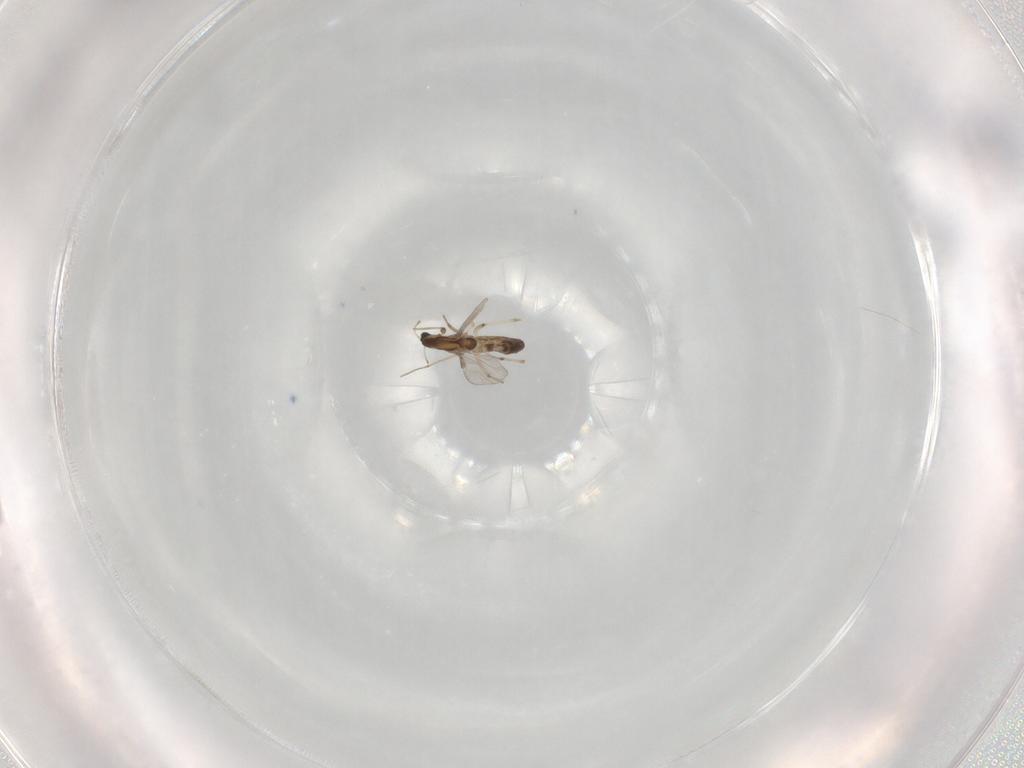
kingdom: Animalia
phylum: Arthropoda
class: Insecta
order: Diptera
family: Chironomidae
